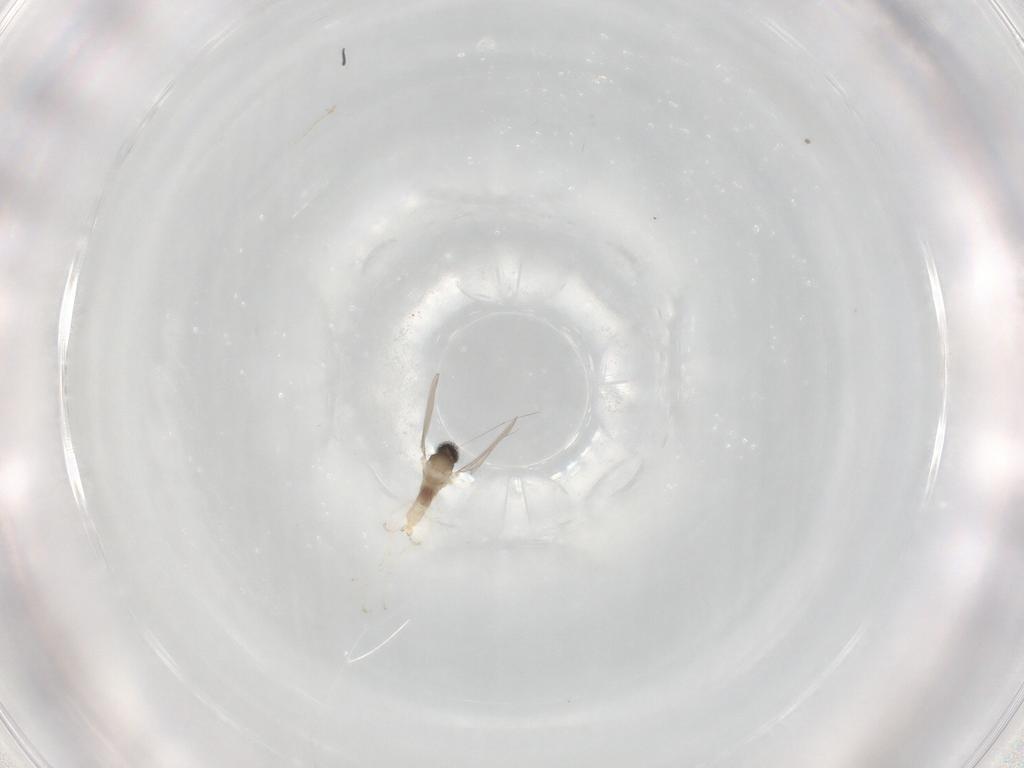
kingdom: Animalia
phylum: Arthropoda
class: Insecta
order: Diptera
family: Cecidomyiidae
